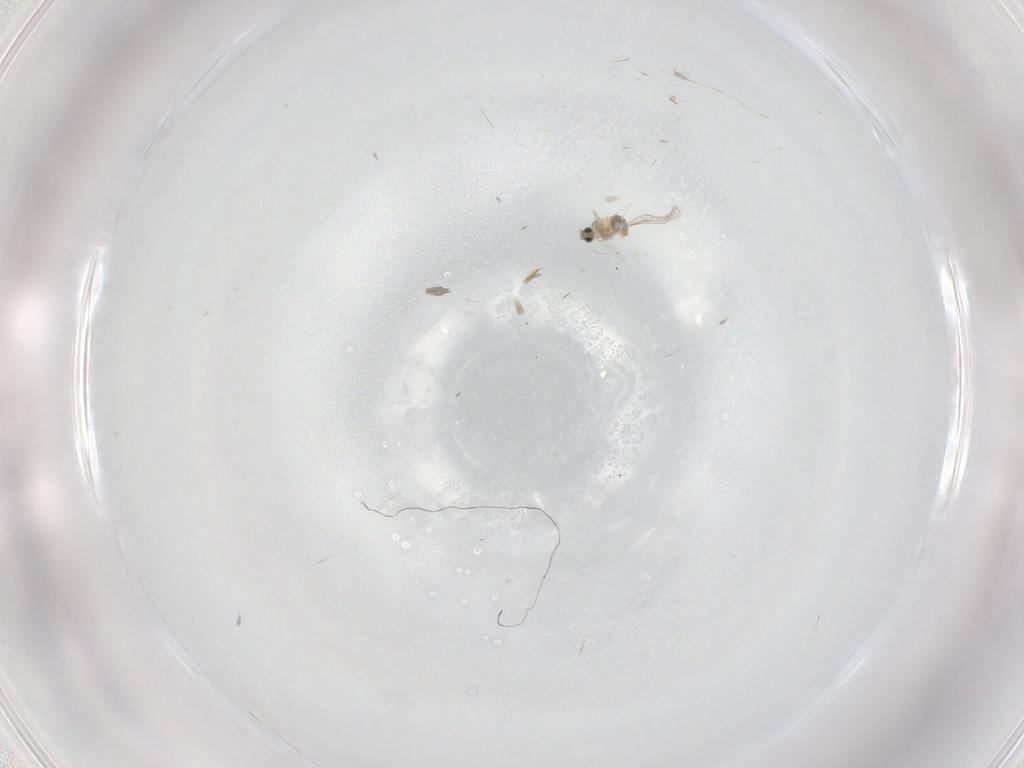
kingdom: Animalia
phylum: Arthropoda
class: Insecta
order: Diptera
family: Cecidomyiidae
